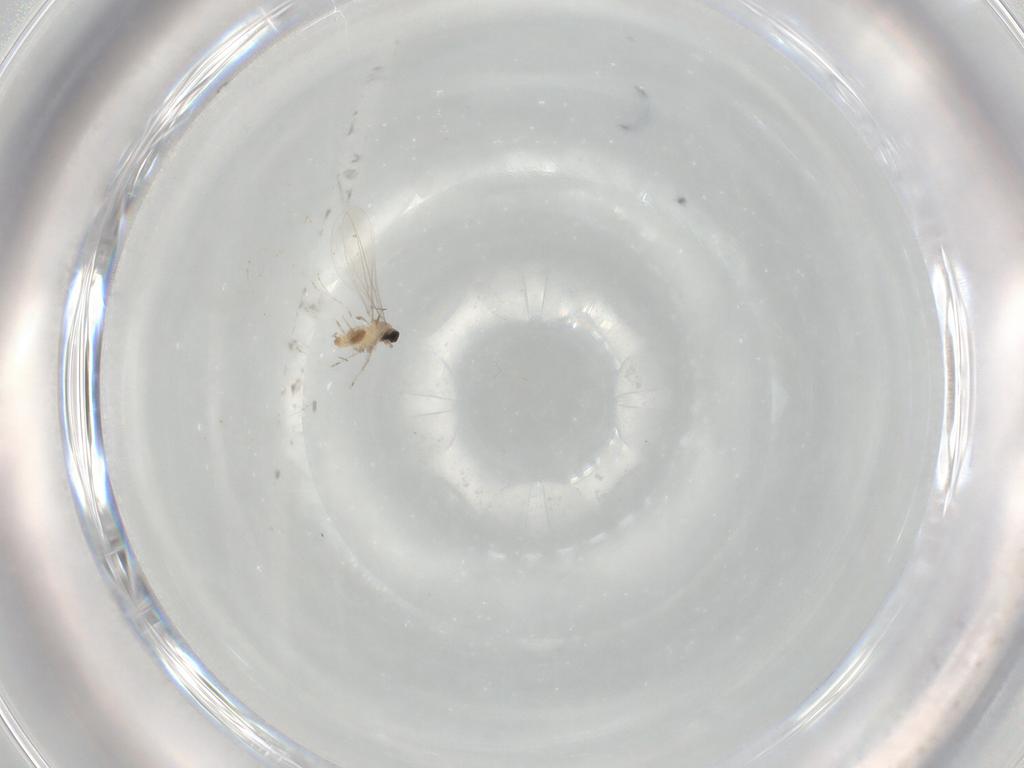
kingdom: Animalia
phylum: Arthropoda
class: Insecta
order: Diptera
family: Cecidomyiidae
